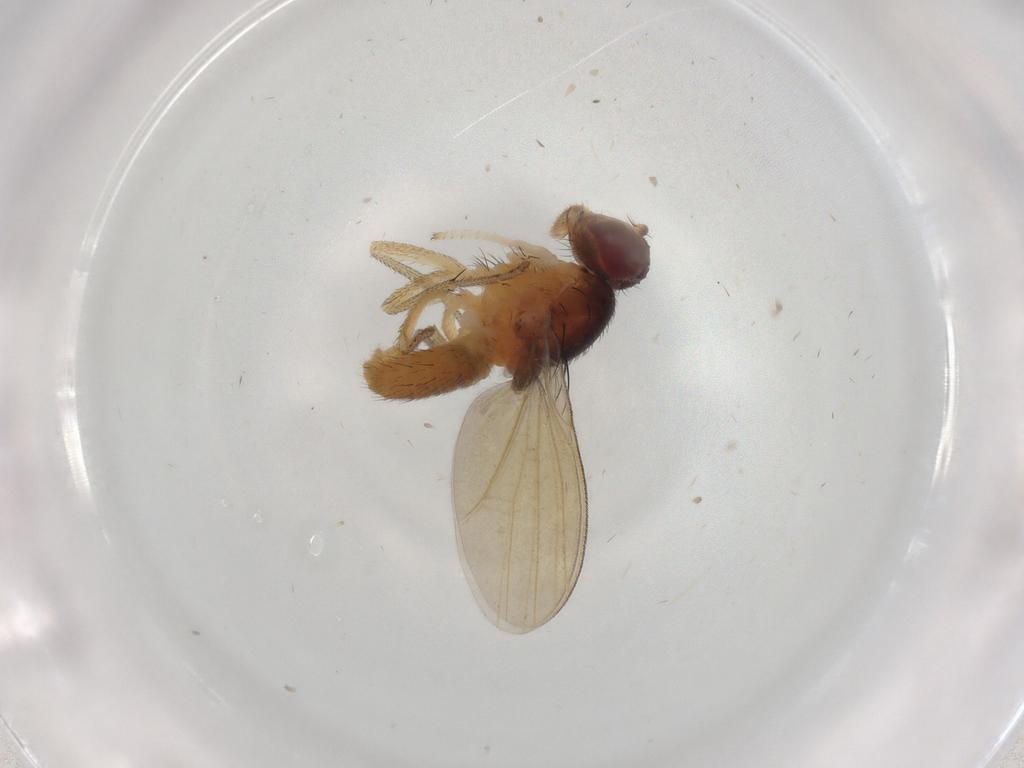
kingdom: Animalia
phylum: Arthropoda
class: Insecta
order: Diptera
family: Lauxaniidae
